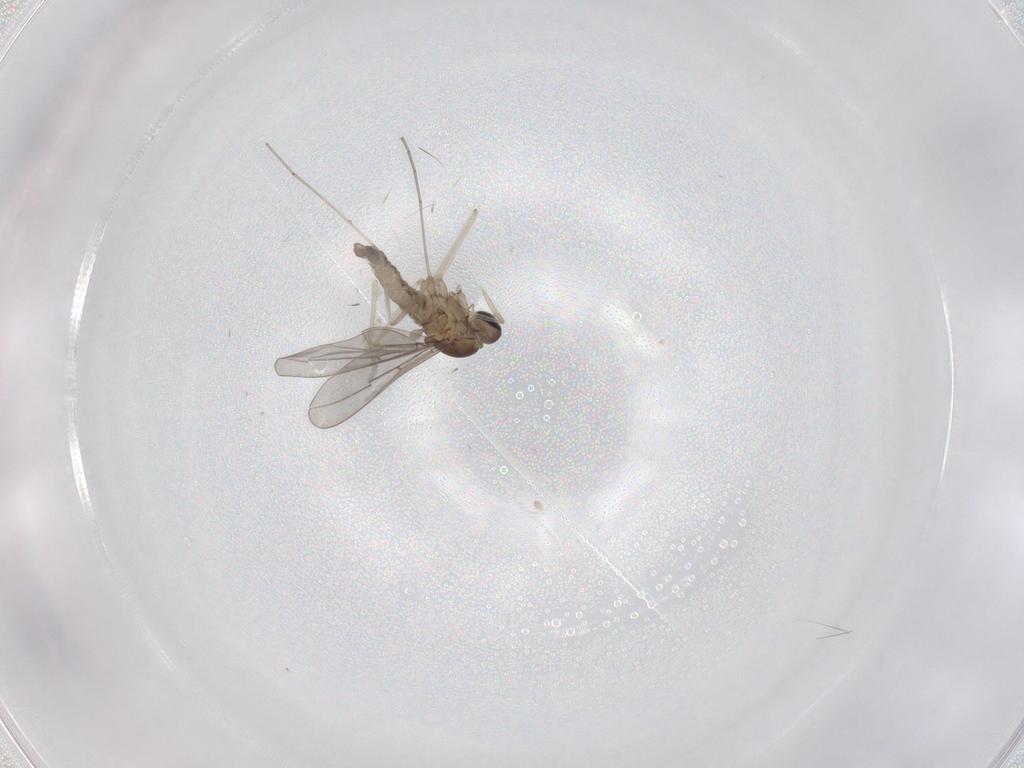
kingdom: Animalia
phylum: Arthropoda
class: Insecta
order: Diptera
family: Cecidomyiidae
